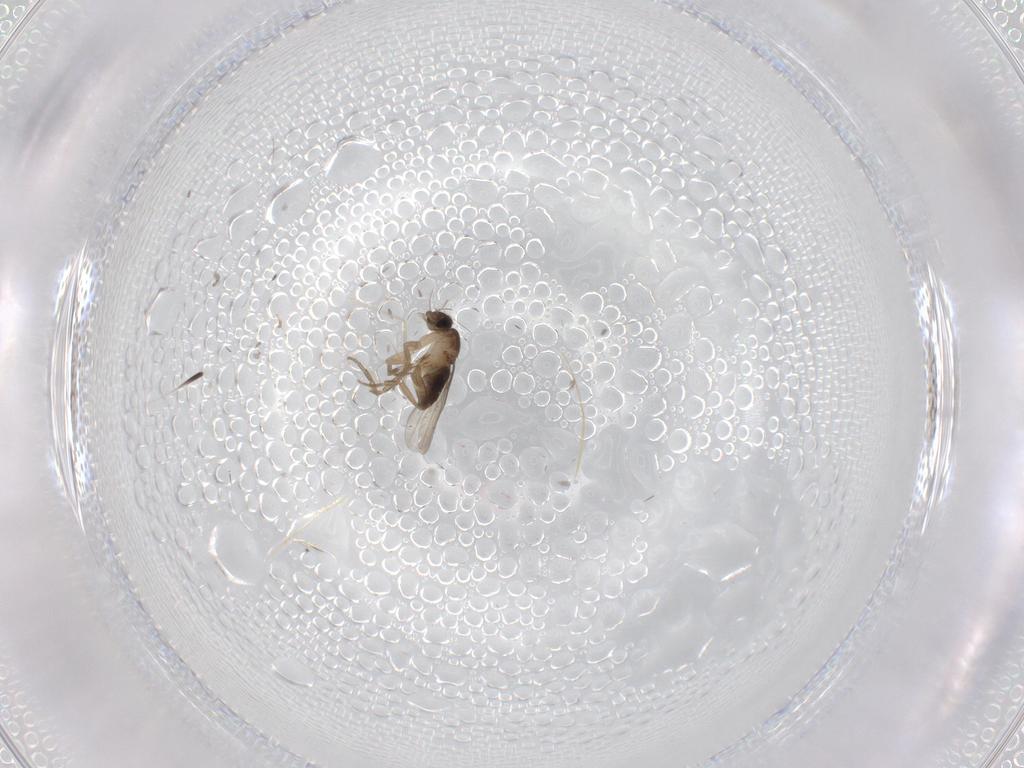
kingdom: Animalia
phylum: Arthropoda
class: Insecta
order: Diptera
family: Phoridae
